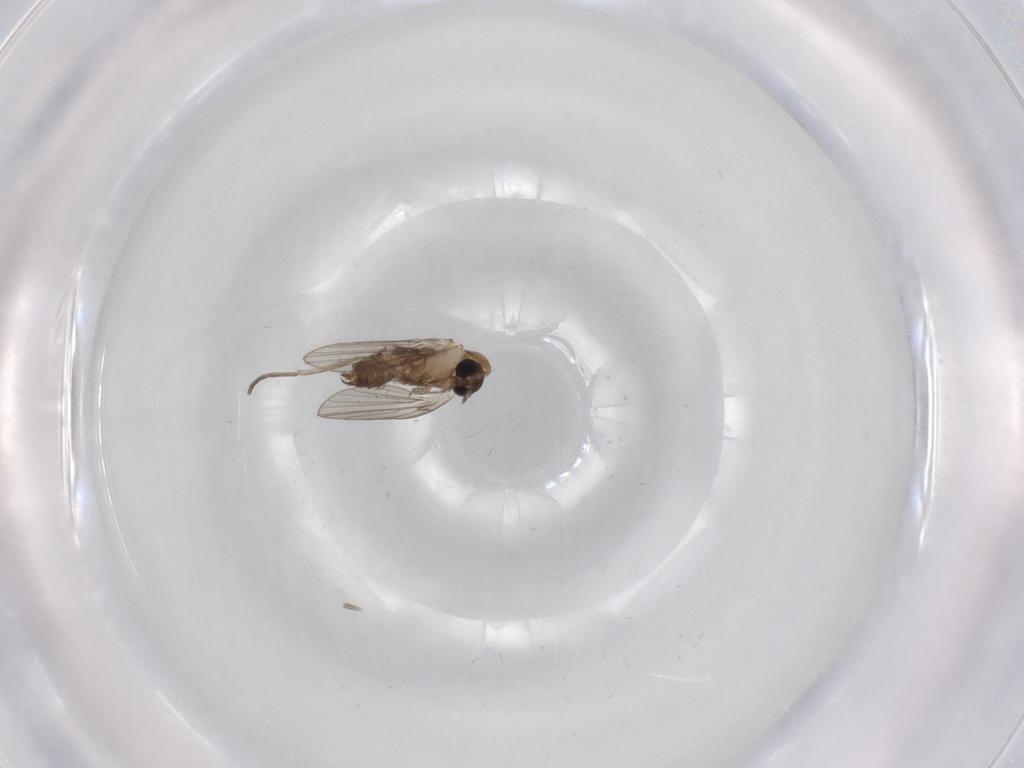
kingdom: Animalia
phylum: Arthropoda
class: Insecta
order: Diptera
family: Psychodidae
